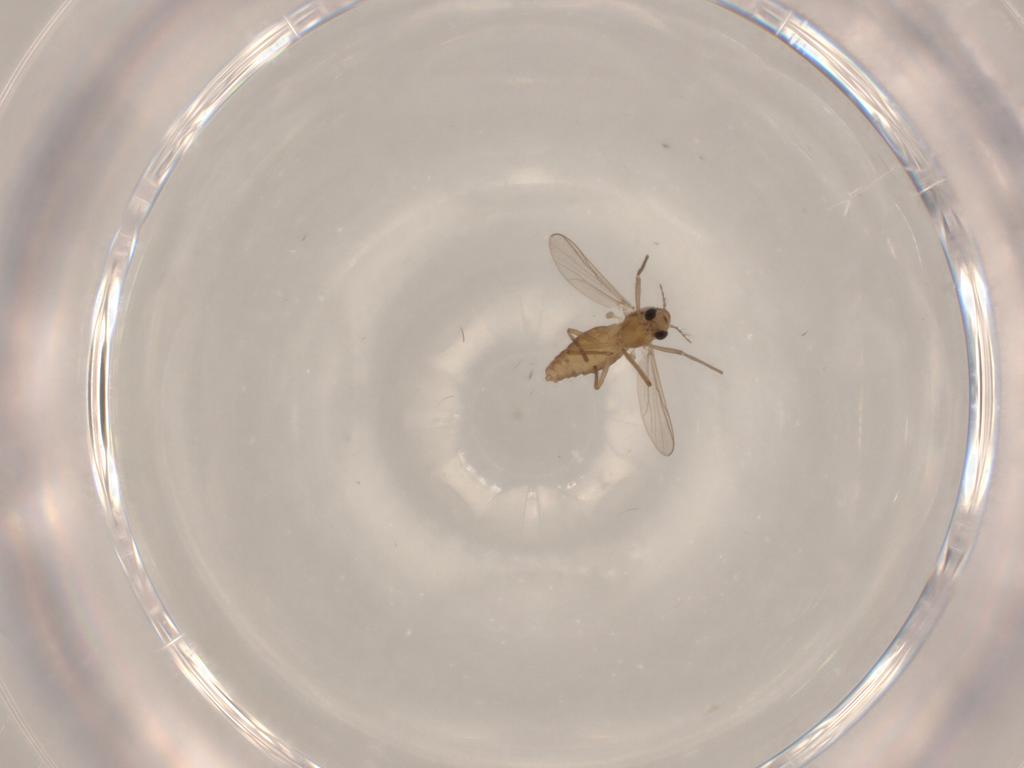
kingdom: Animalia
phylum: Arthropoda
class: Insecta
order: Diptera
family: Chironomidae
